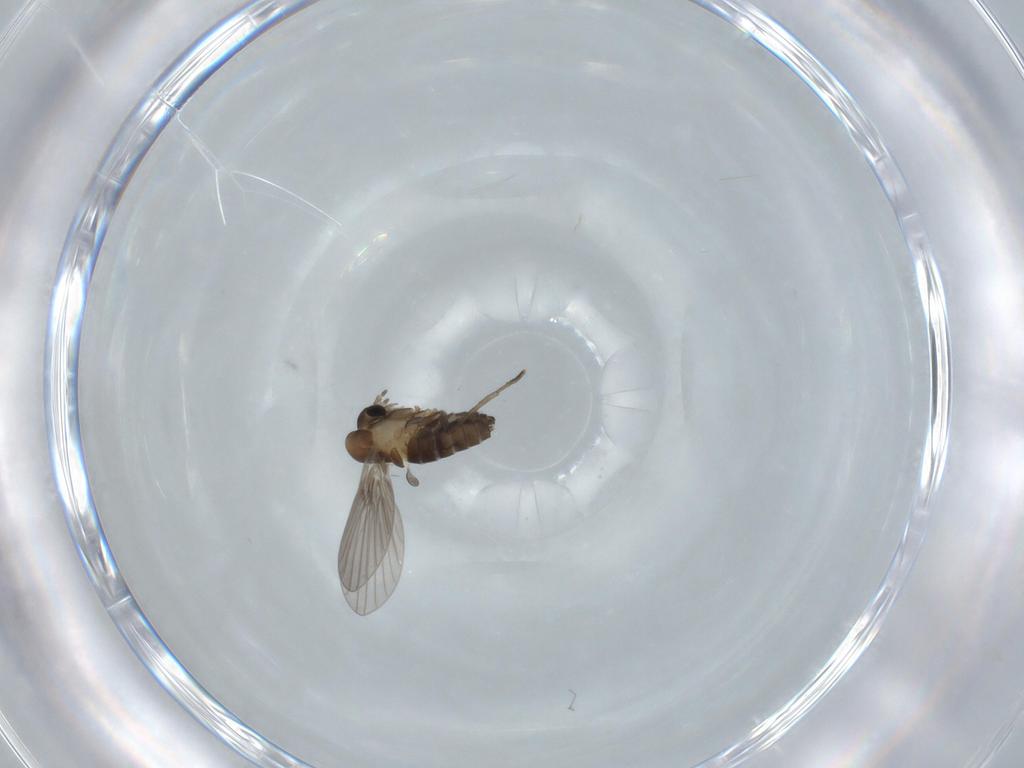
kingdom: Animalia
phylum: Arthropoda
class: Insecta
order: Diptera
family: Psychodidae
